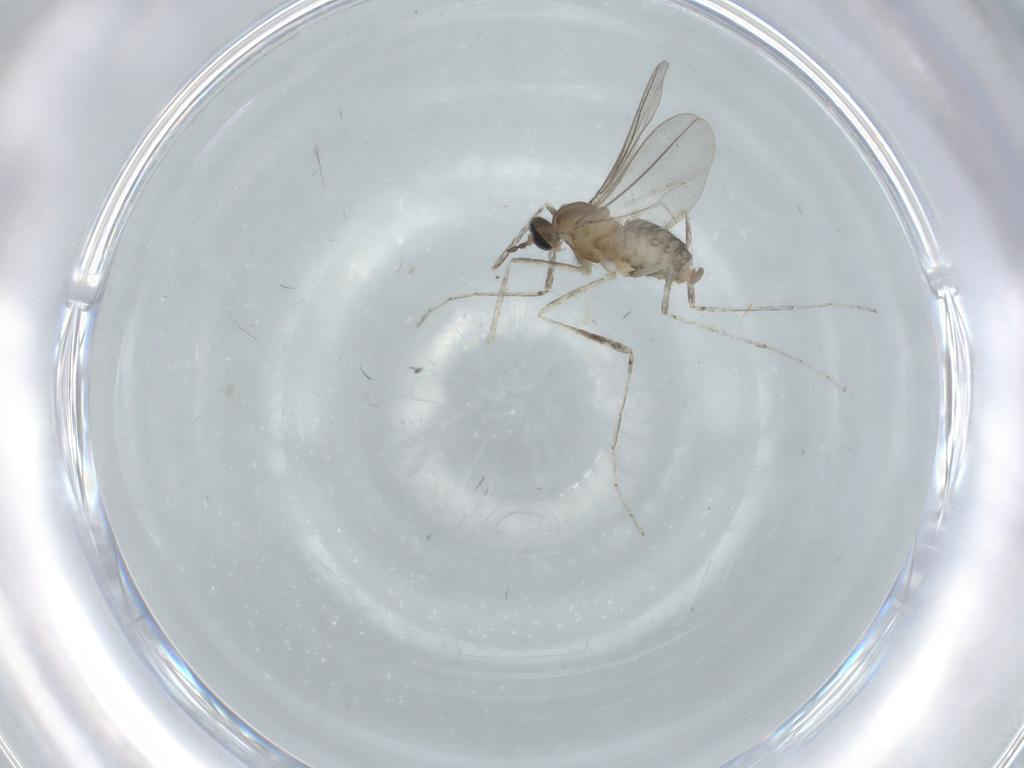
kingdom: Animalia
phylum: Arthropoda
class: Insecta
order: Diptera
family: Cecidomyiidae
